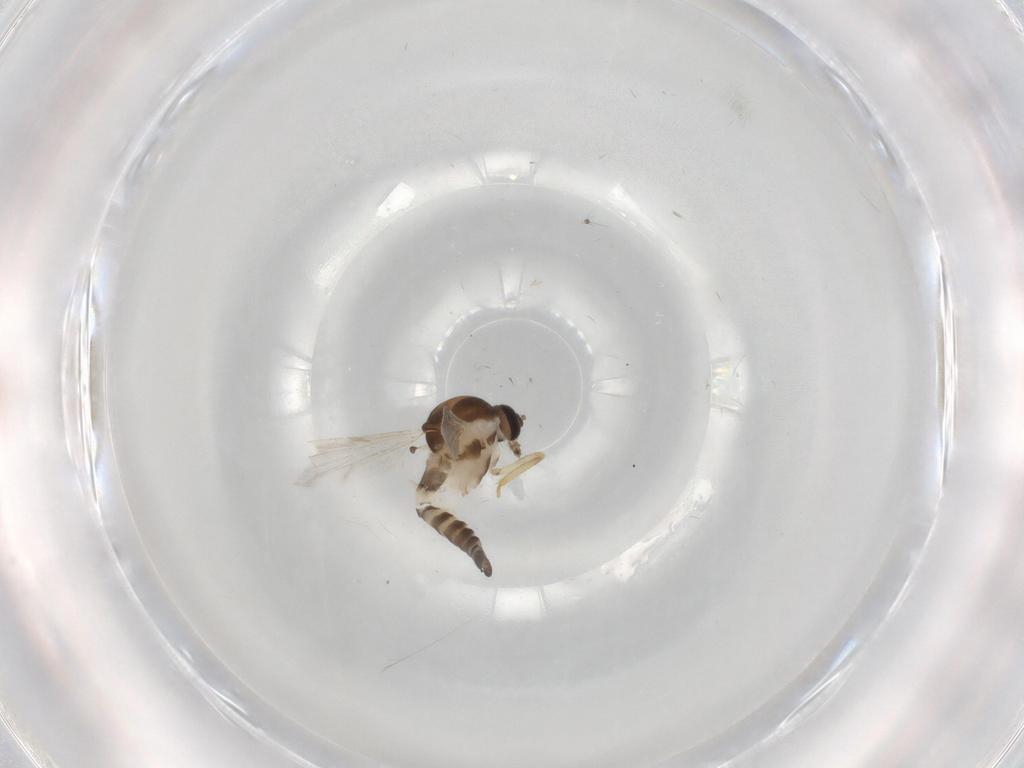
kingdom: Animalia
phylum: Arthropoda
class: Insecta
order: Diptera
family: Ceratopogonidae
